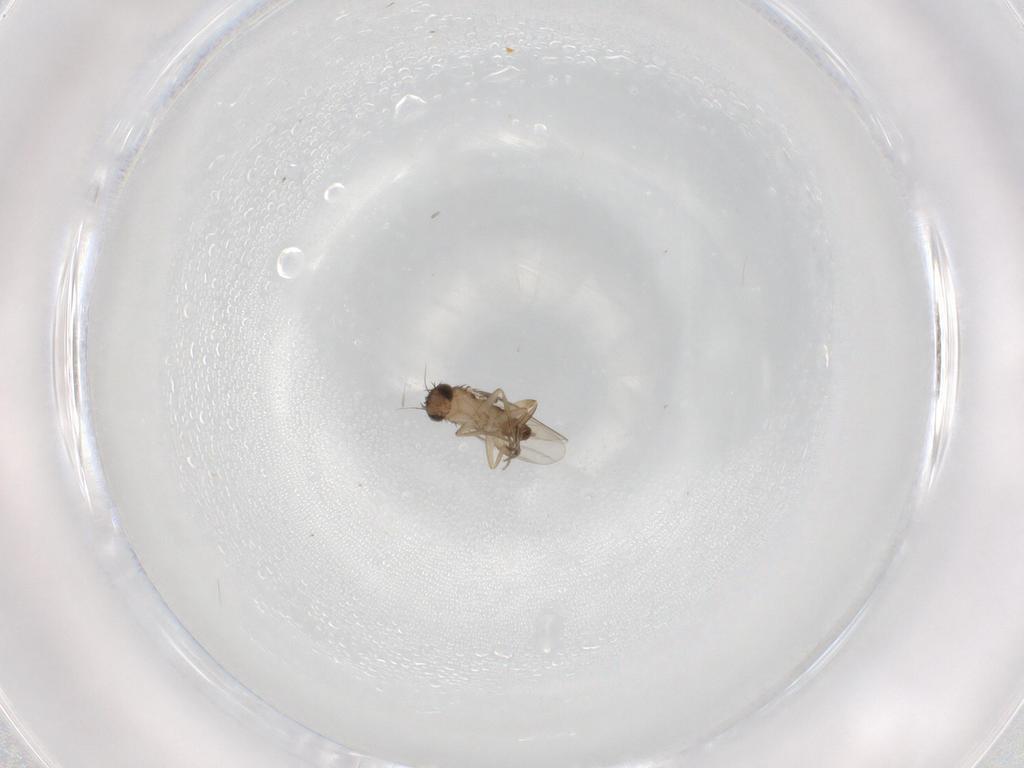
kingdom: Animalia
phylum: Arthropoda
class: Insecta
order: Diptera
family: Phoridae
